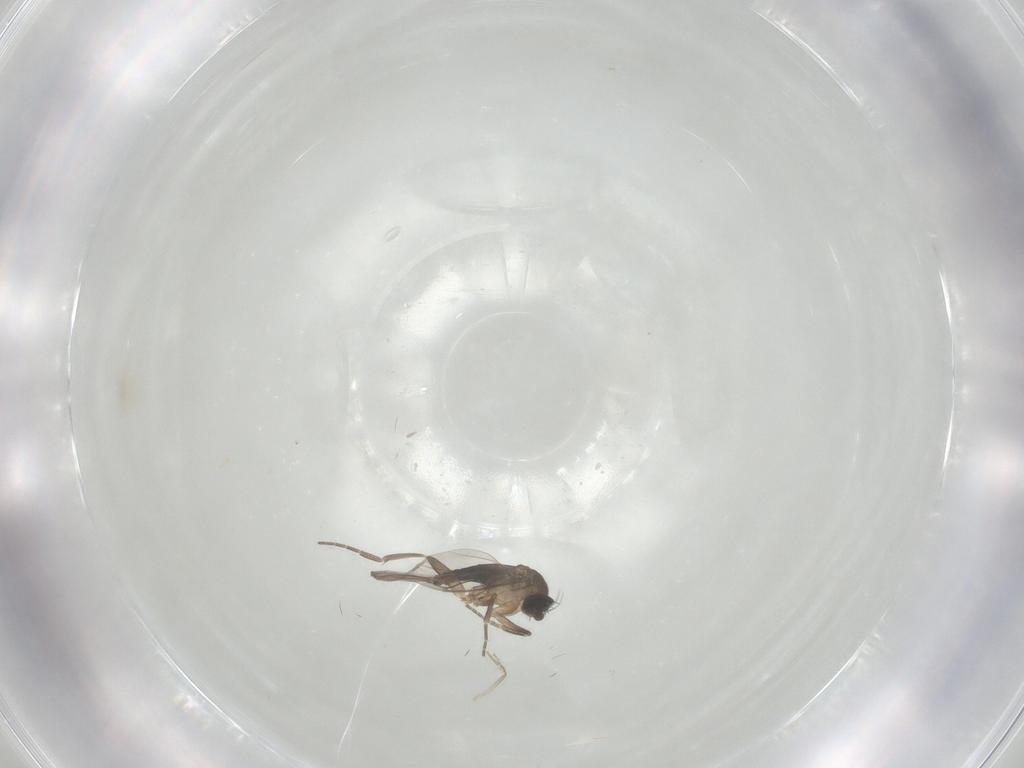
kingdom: Animalia
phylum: Arthropoda
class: Insecta
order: Diptera
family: Chironomidae
